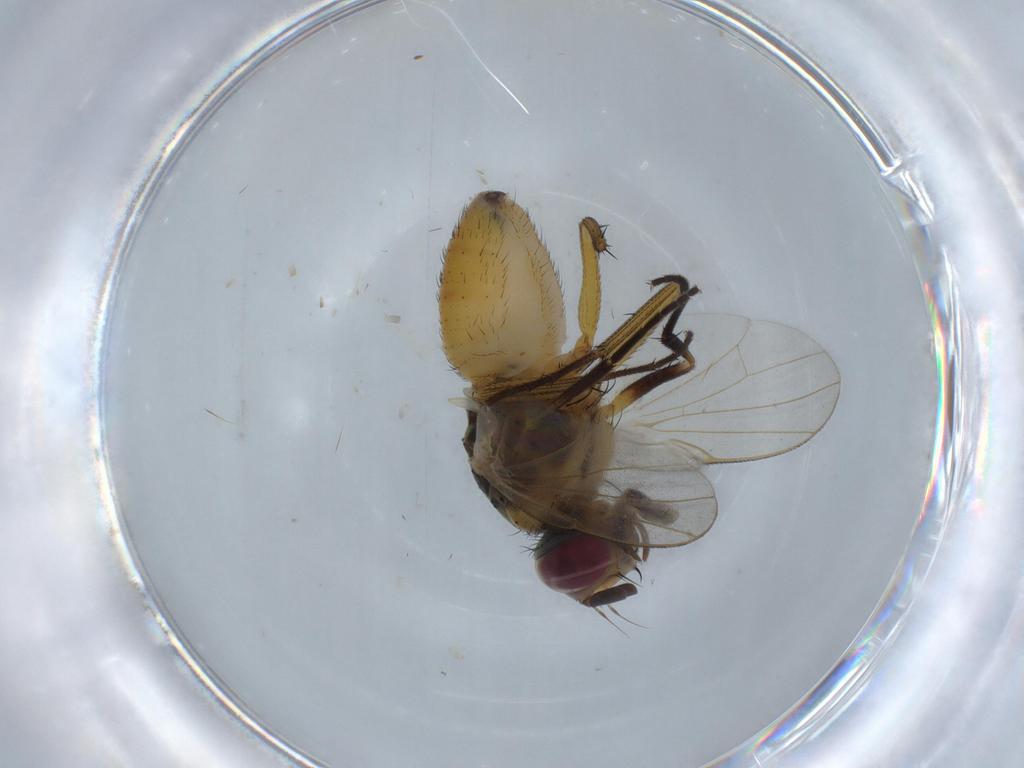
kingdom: Animalia
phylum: Arthropoda
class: Insecta
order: Diptera
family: Muscidae
